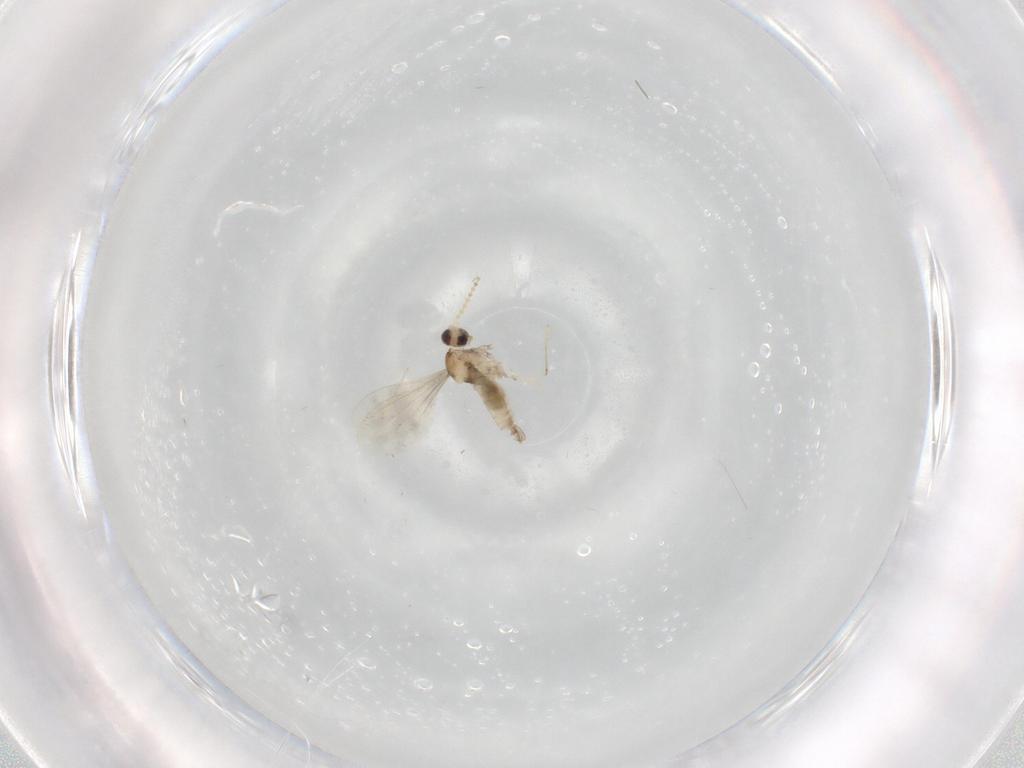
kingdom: Animalia
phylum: Arthropoda
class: Insecta
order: Diptera
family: Cecidomyiidae
